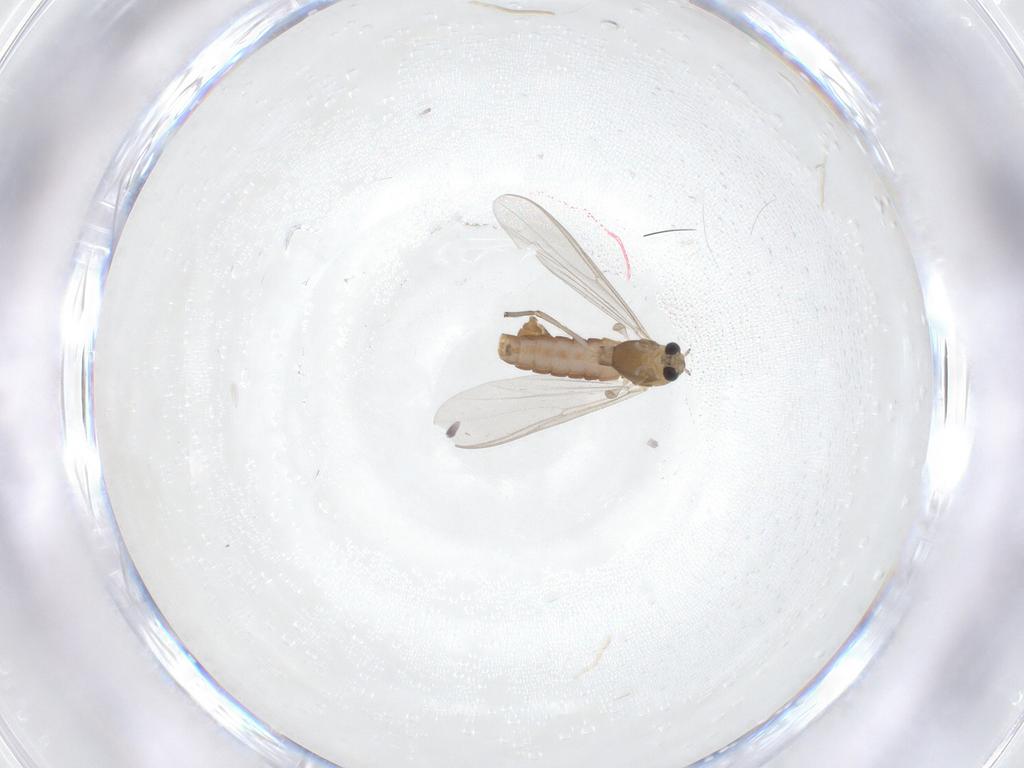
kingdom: Animalia
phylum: Arthropoda
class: Insecta
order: Diptera
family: Chironomidae
